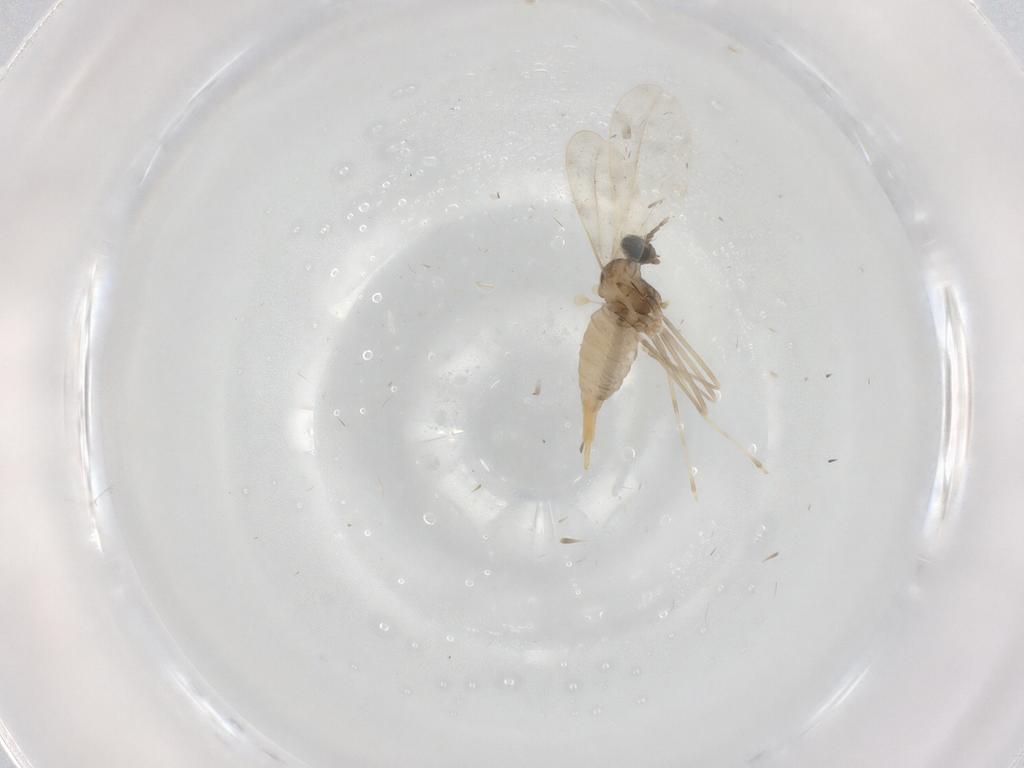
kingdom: Animalia
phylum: Arthropoda
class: Insecta
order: Diptera
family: Cecidomyiidae
